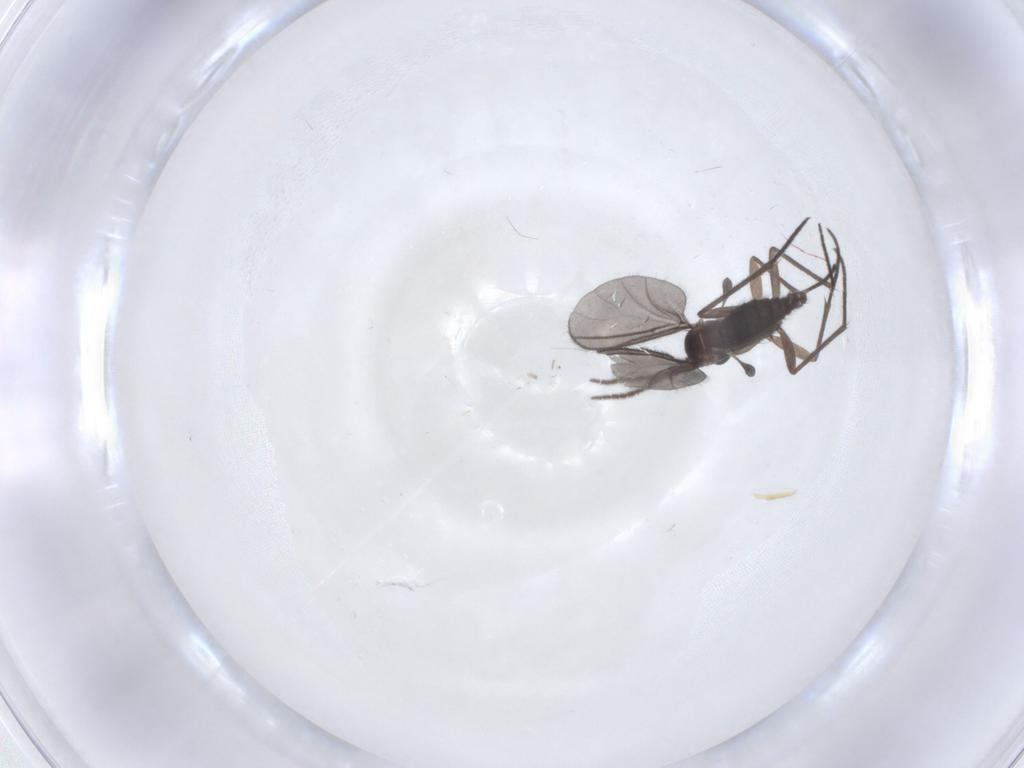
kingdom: Animalia
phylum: Arthropoda
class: Insecta
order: Diptera
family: Sciaridae
